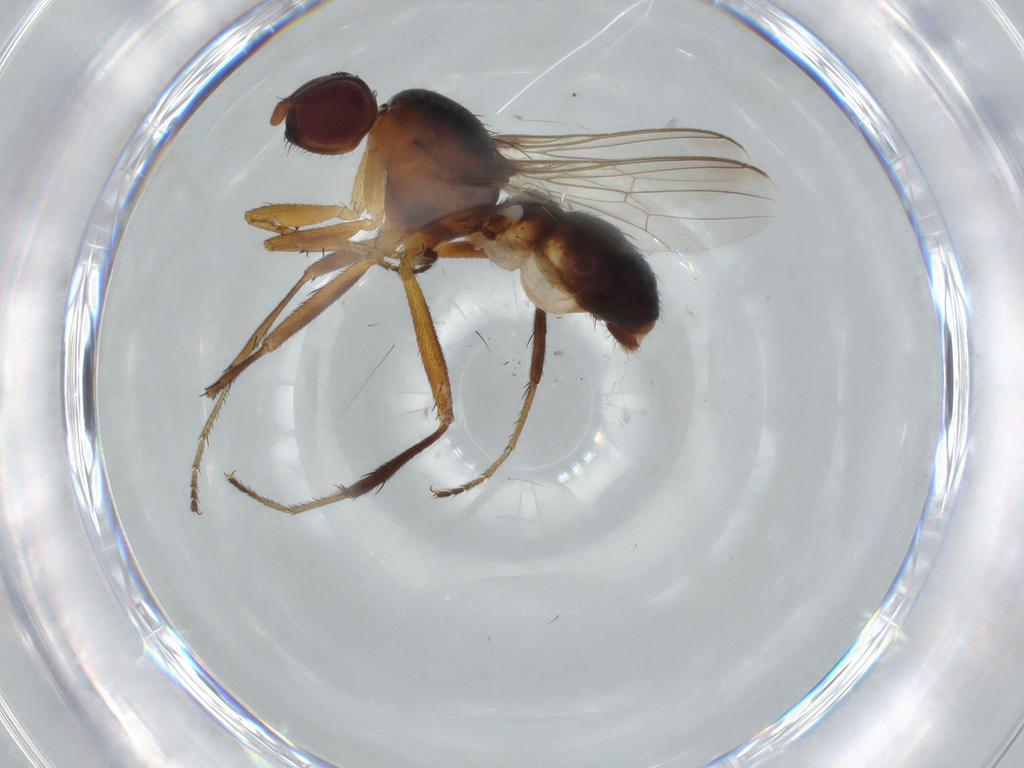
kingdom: Animalia
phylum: Arthropoda
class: Insecta
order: Diptera
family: Sepsidae
